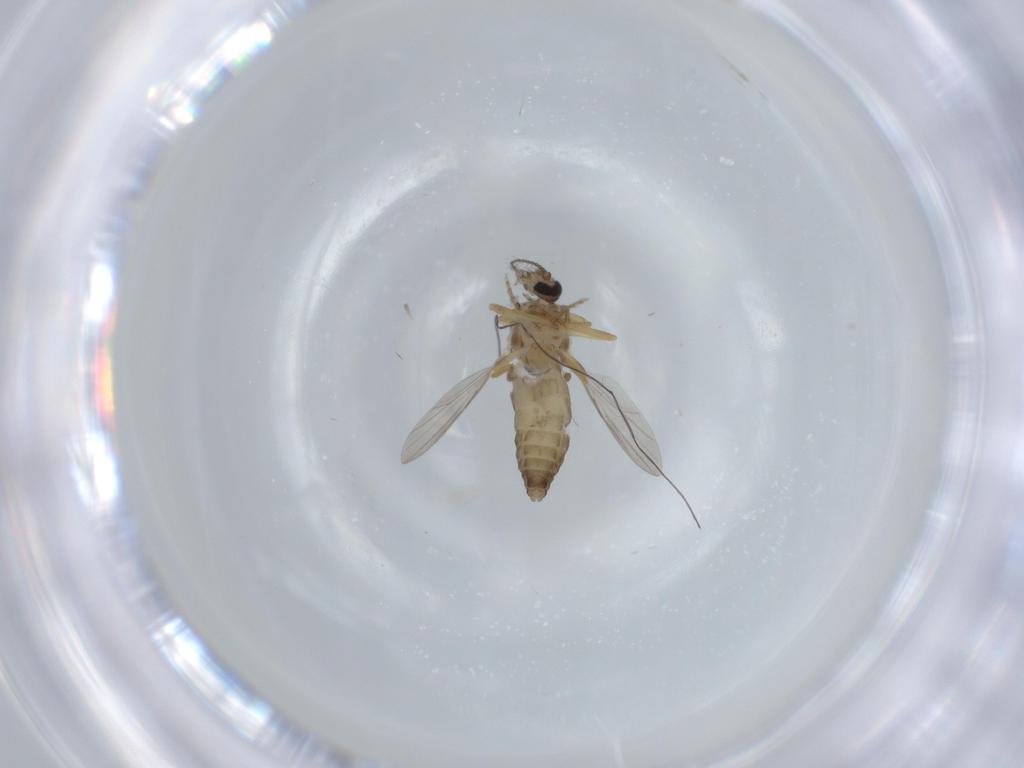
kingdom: Animalia
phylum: Arthropoda
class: Insecta
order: Diptera
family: Ceratopogonidae
